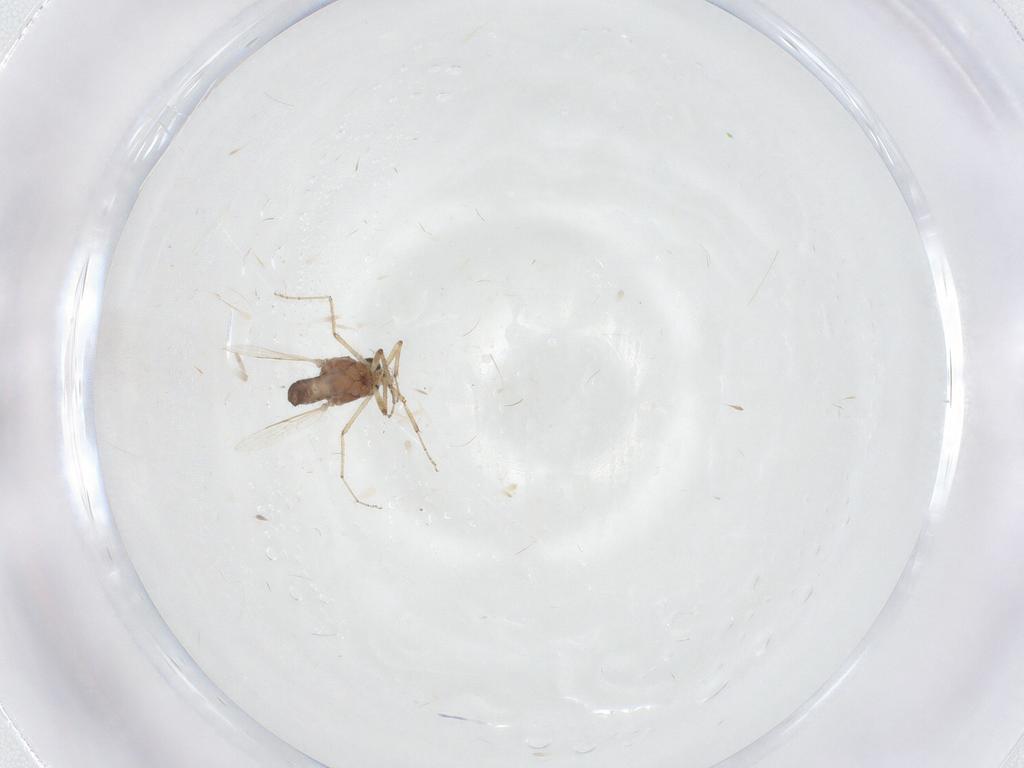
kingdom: Animalia
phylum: Arthropoda
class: Insecta
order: Diptera
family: Ceratopogonidae
